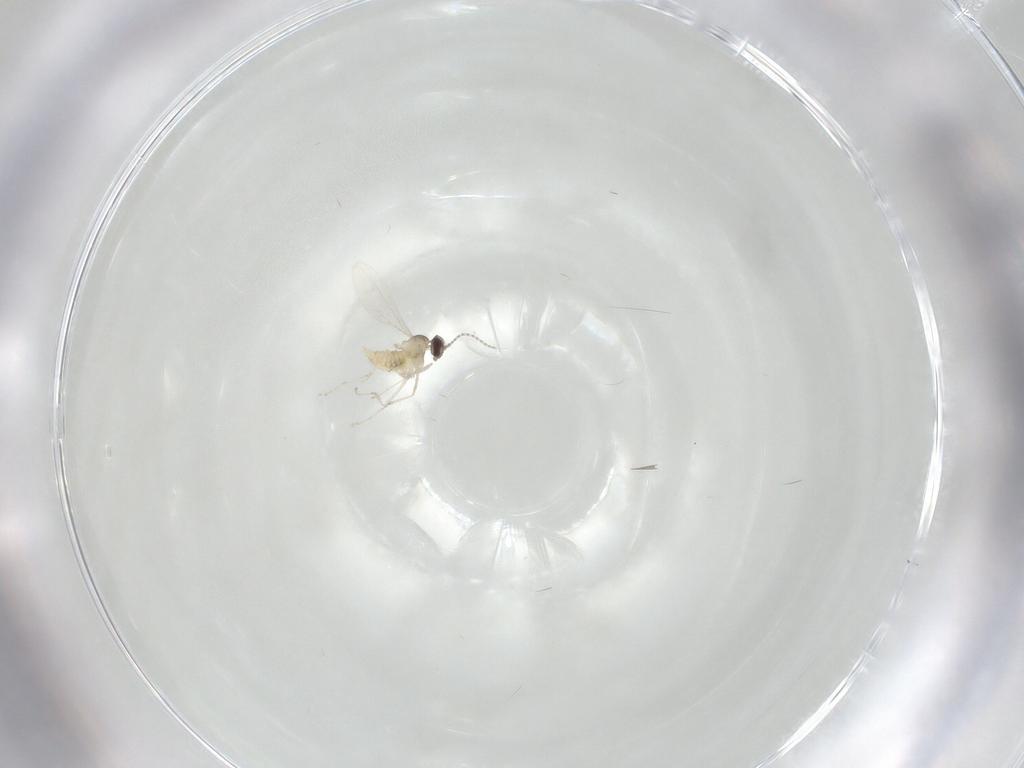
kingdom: Animalia
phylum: Arthropoda
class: Insecta
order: Diptera
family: Cecidomyiidae
